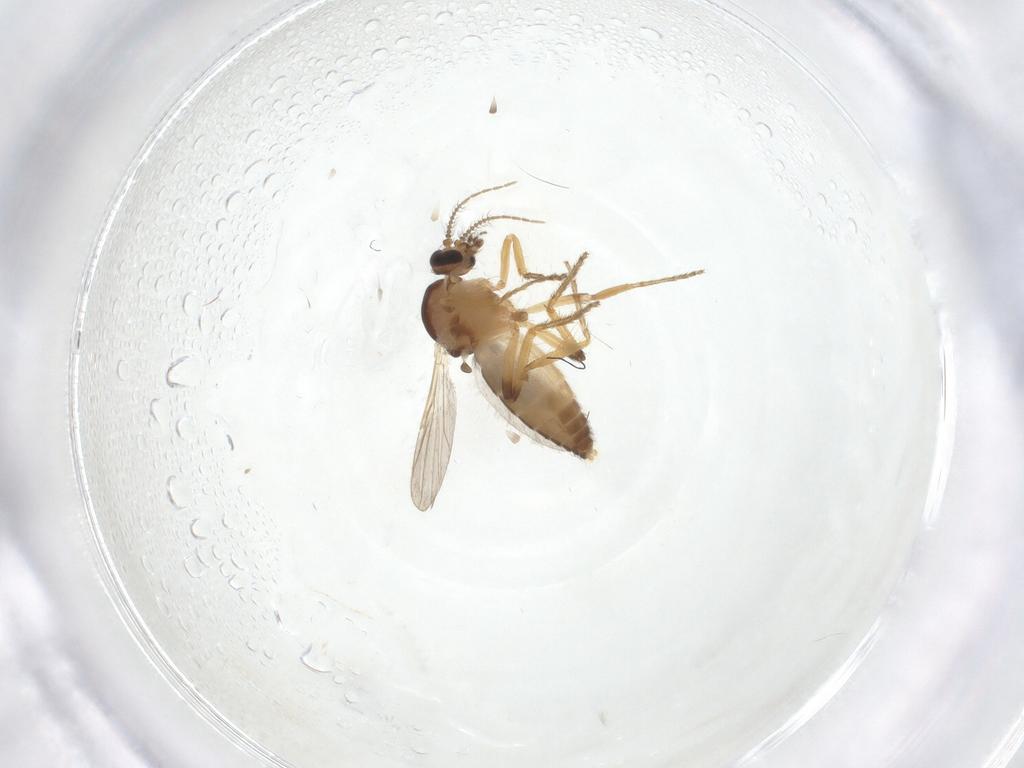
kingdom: Animalia
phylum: Arthropoda
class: Insecta
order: Diptera
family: Ceratopogonidae
